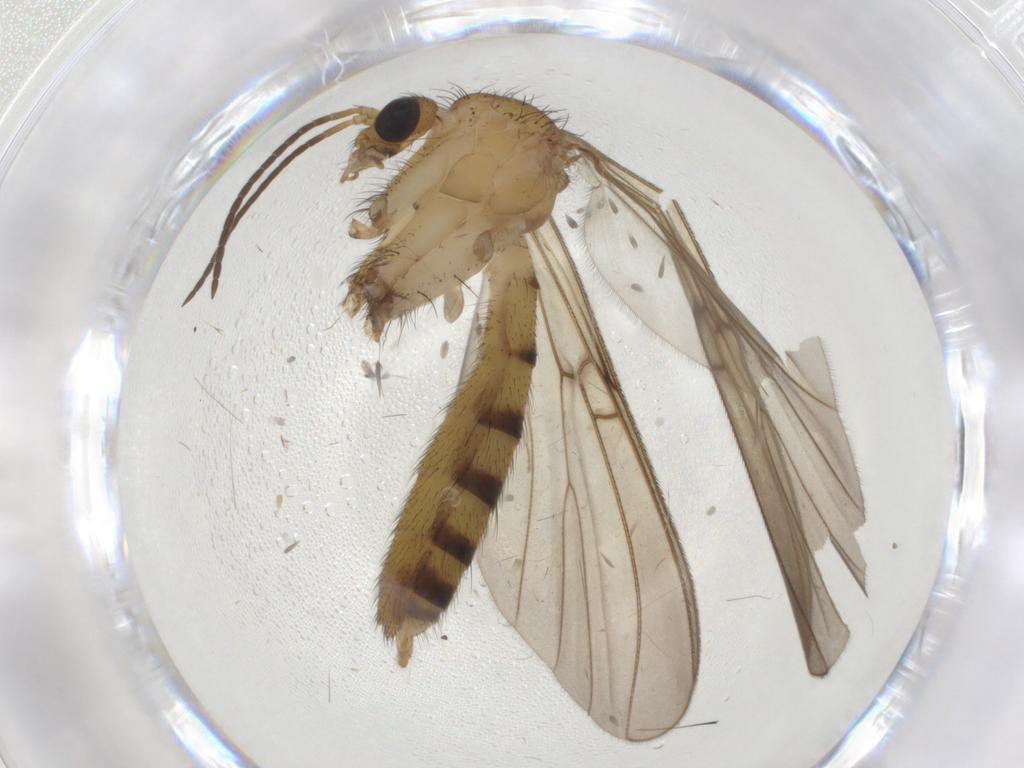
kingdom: Animalia
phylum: Arthropoda
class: Insecta
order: Diptera
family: Mycetophilidae
